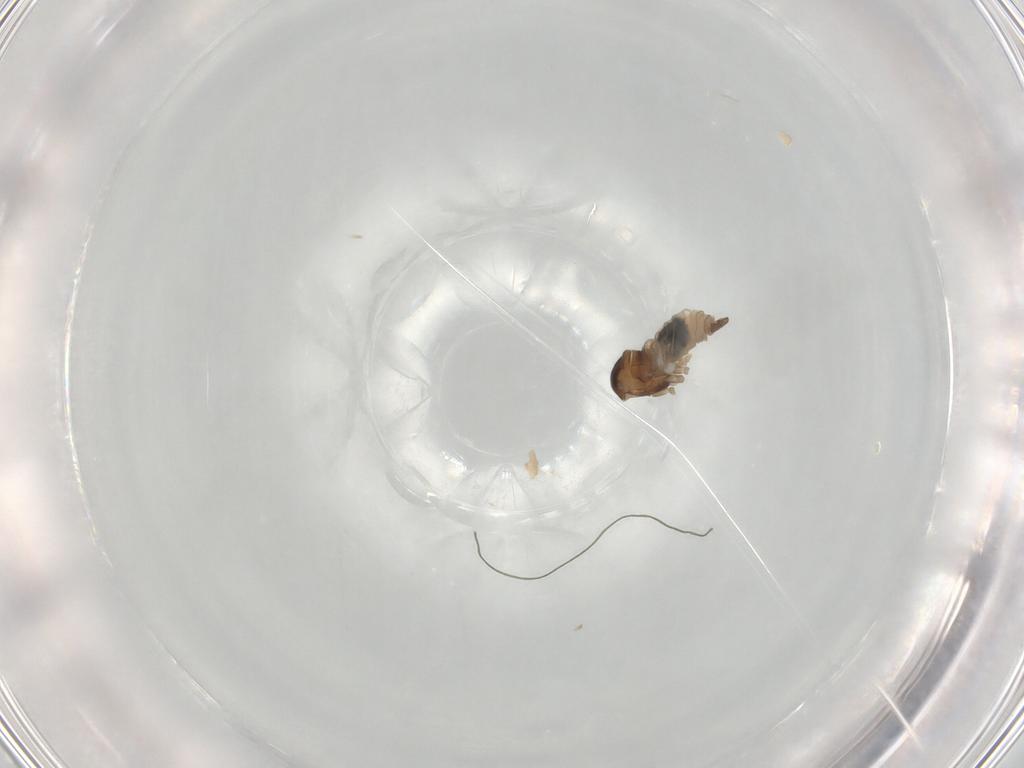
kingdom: Animalia
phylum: Arthropoda
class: Insecta
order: Diptera
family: Cecidomyiidae
